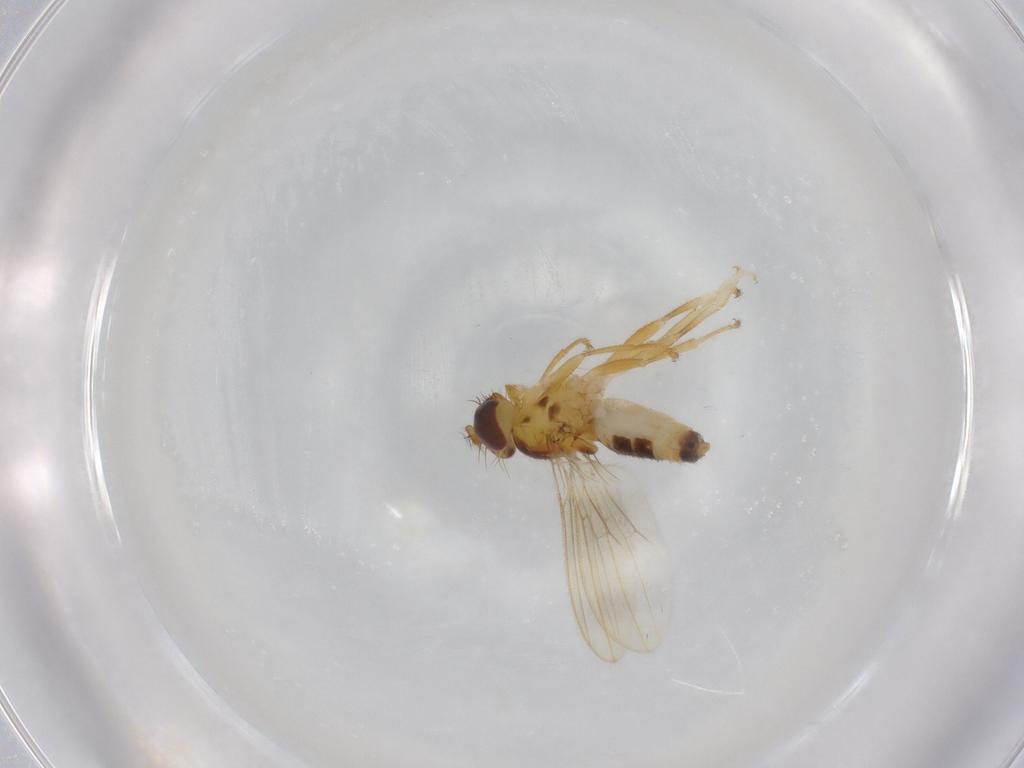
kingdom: Animalia
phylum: Arthropoda
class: Insecta
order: Diptera
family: Periscelididae
